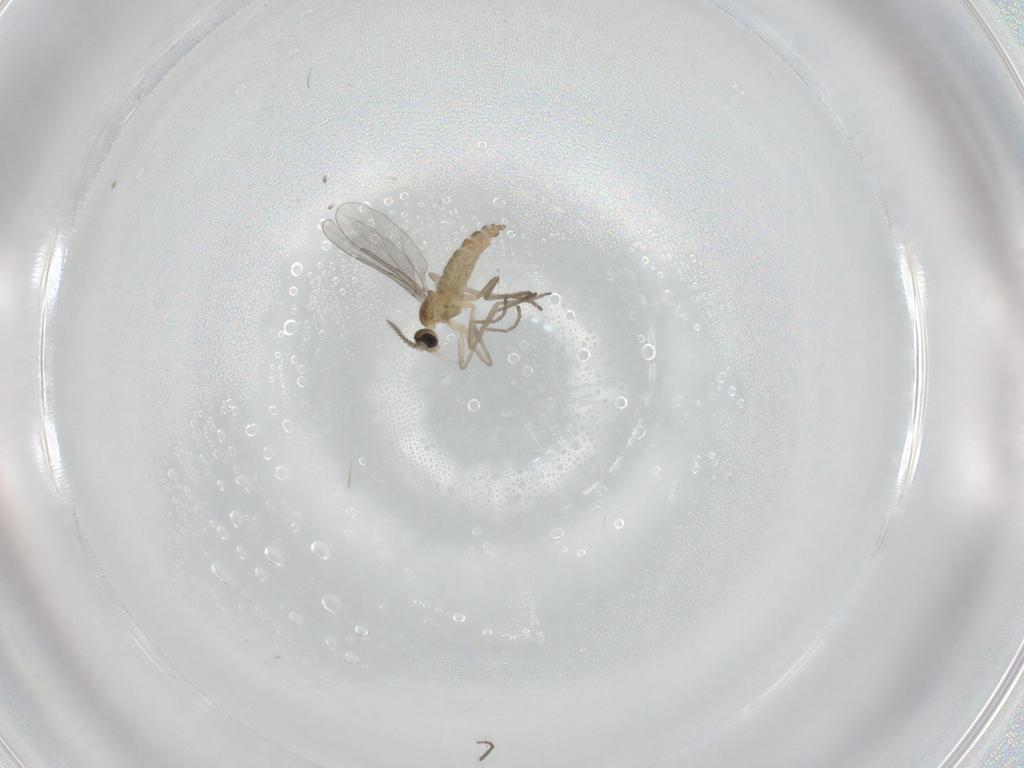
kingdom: Animalia
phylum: Arthropoda
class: Insecta
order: Diptera
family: Cecidomyiidae
